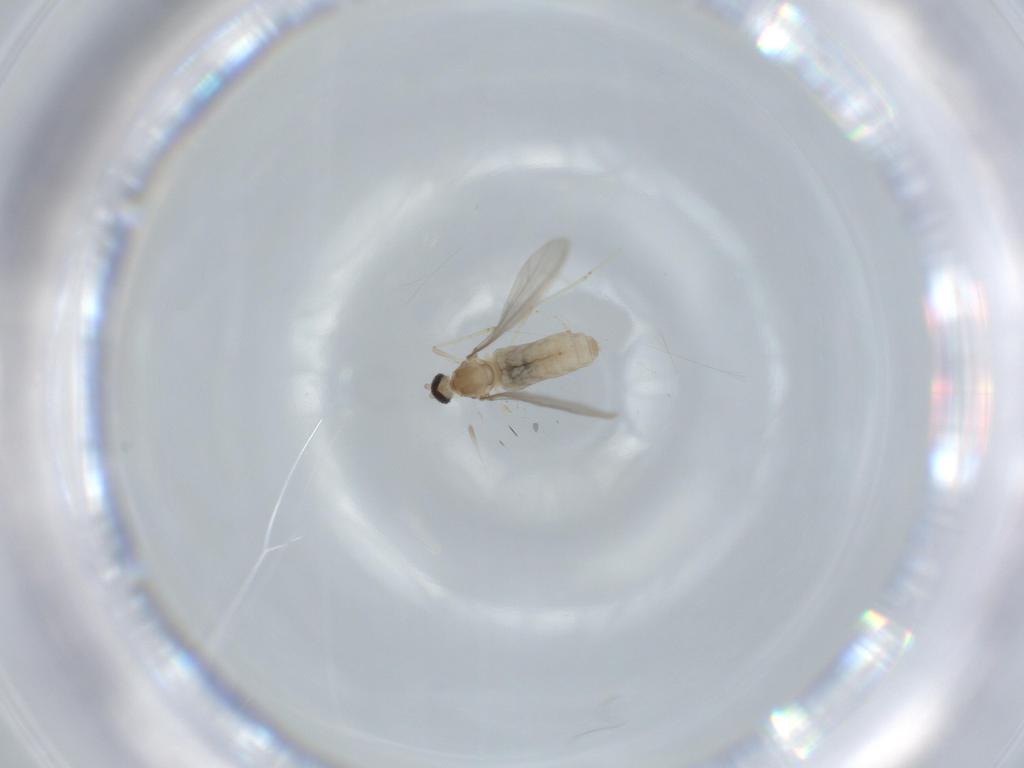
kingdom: Animalia
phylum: Arthropoda
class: Insecta
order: Diptera
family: Cecidomyiidae
